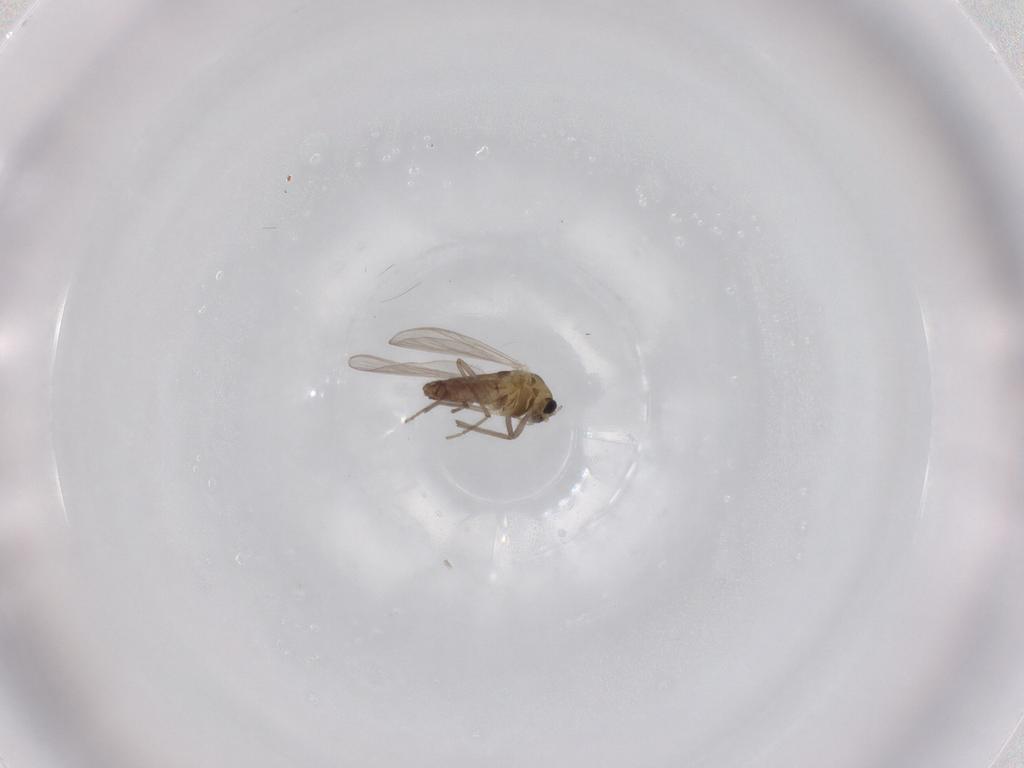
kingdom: Animalia
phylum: Arthropoda
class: Insecta
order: Diptera
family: Chironomidae
